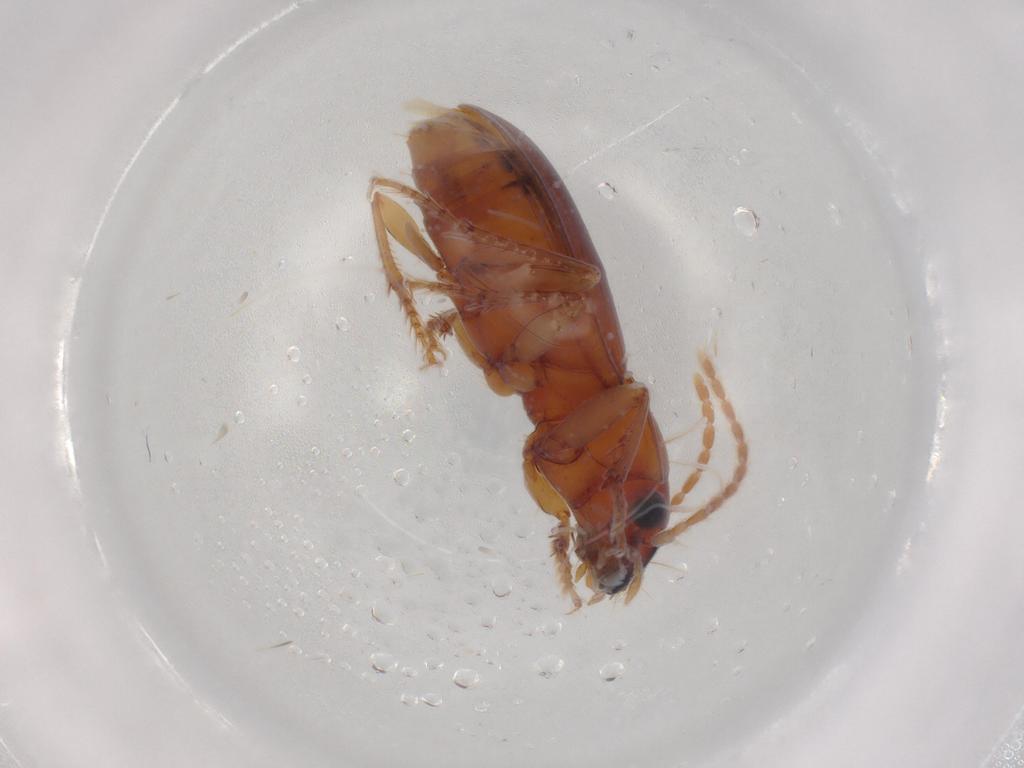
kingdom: Animalia
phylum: Arthropoda
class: Insecta
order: Coleoptera
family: Carabidae
